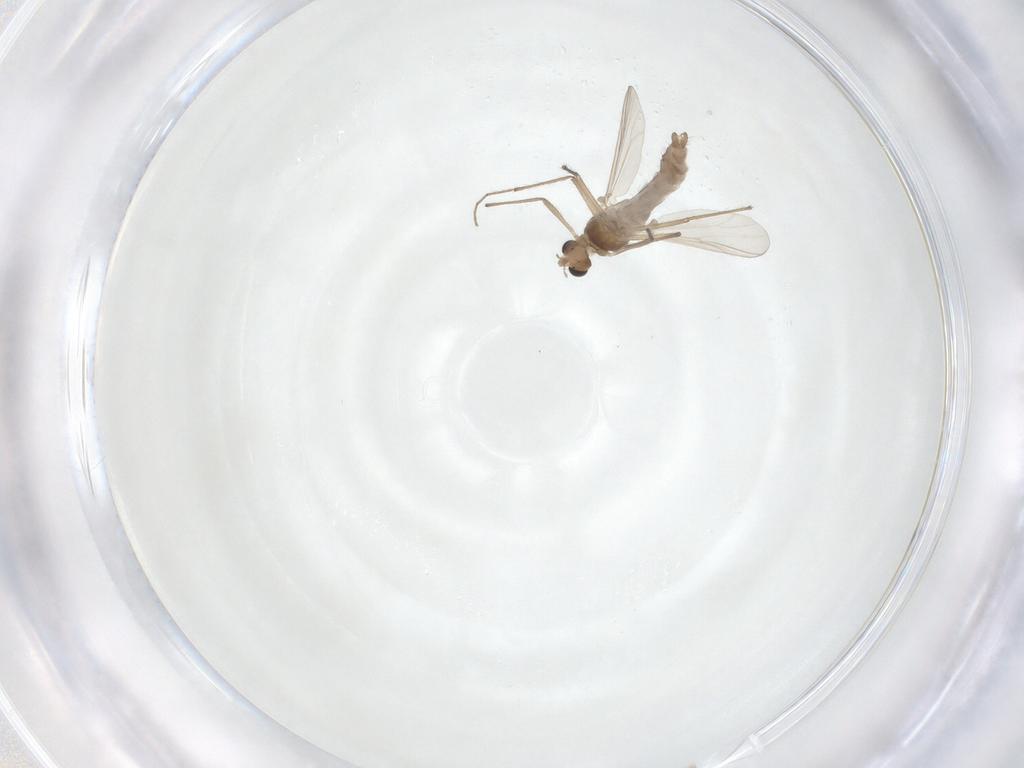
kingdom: Animalia
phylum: Arthropoda
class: Insecta
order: Diptera
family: Chironomidae
